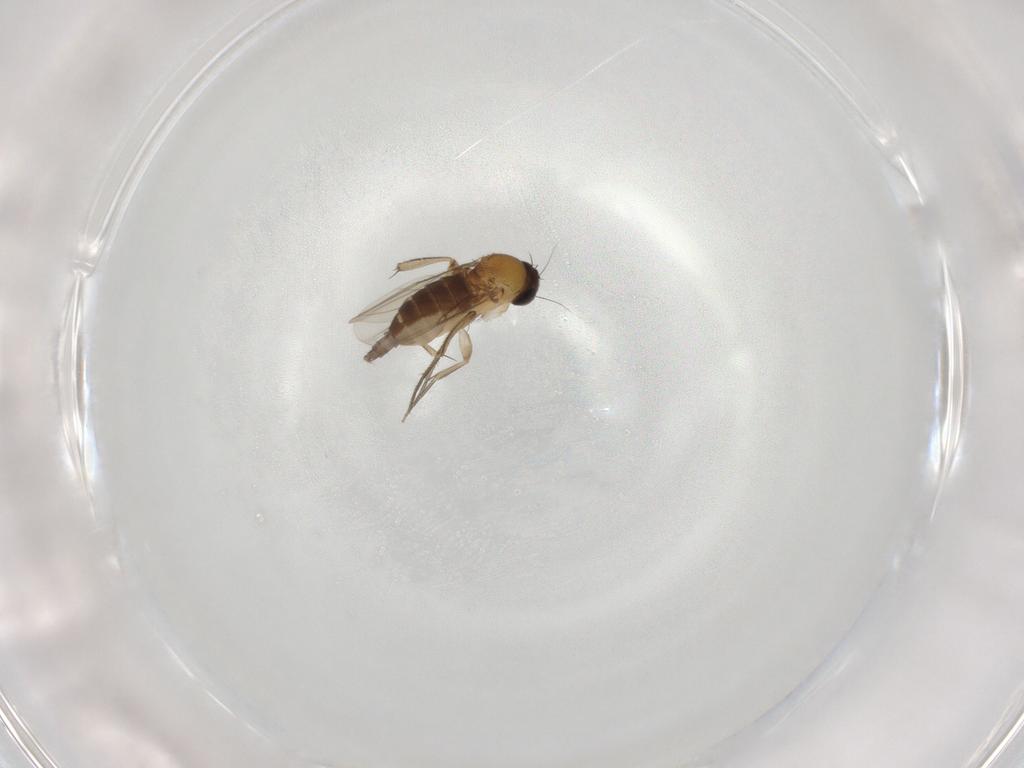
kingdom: Animalia
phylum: Arthropoda
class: Insecta
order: Diptera
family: Phoridae
